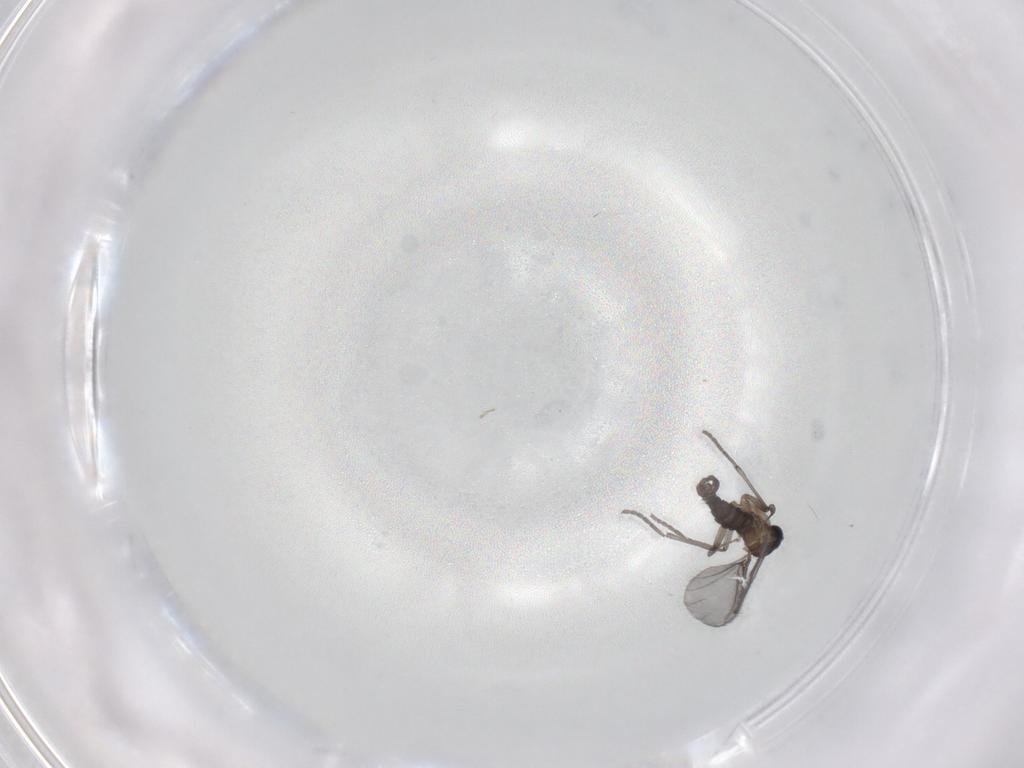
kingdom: Animalia
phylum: Arthropoda
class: Insecta
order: Diptera
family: Sciaridae
